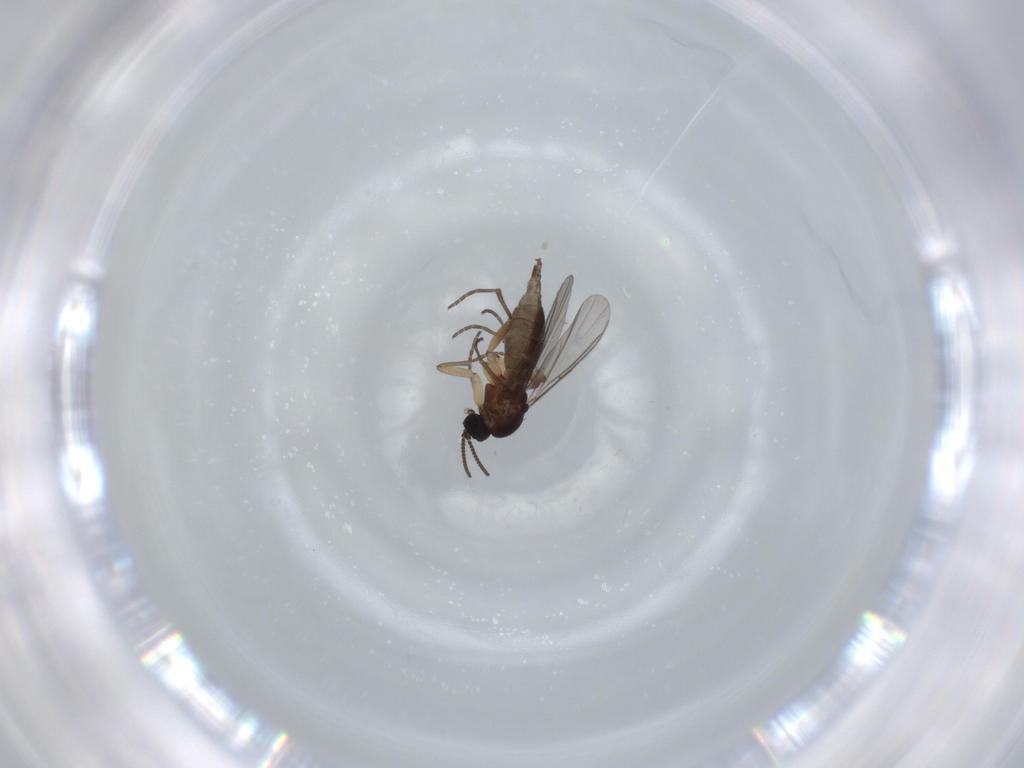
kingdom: Animalia
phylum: Arthropoda
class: Insecta
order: Diptera
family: Sciaridae
